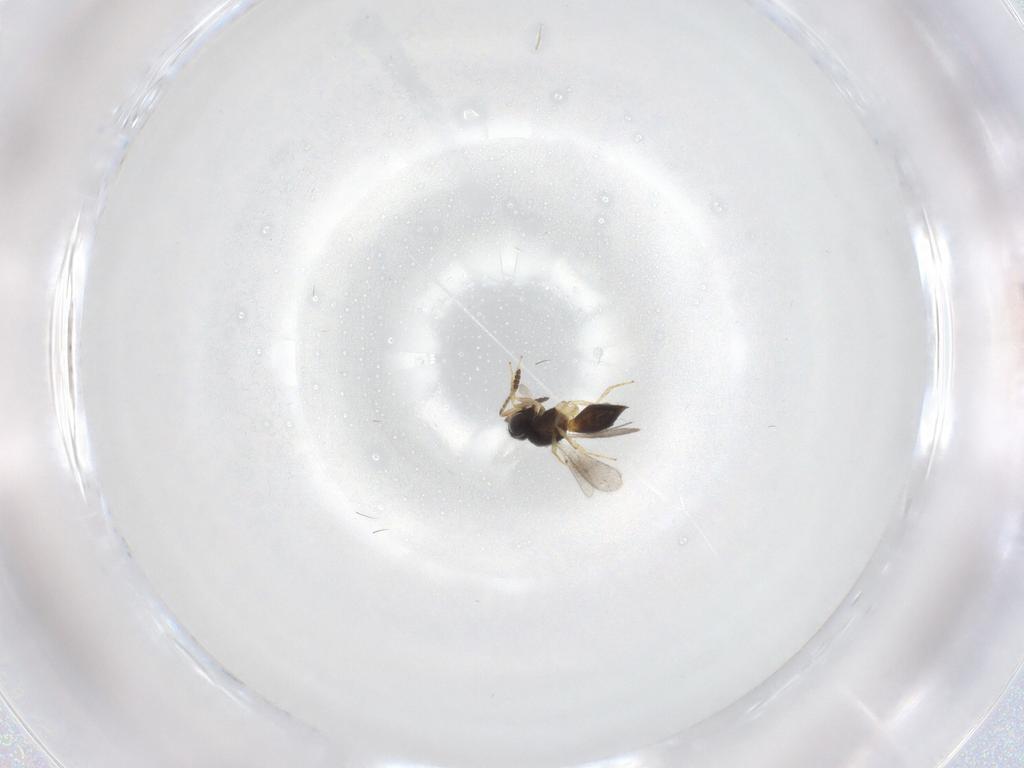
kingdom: Animalia
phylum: Arthropoda
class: Insecta
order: Hymenoptera
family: Scelionidae
